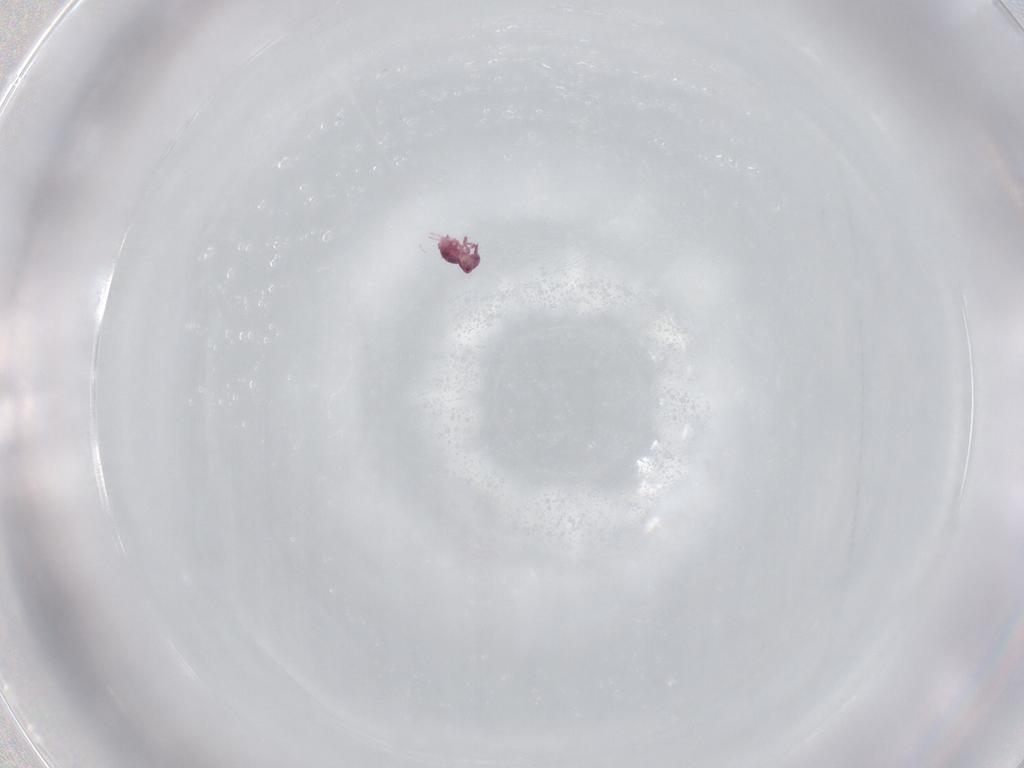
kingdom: Animalia
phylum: Arthropoda
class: Collembola
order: Symphypleona
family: Sminthurididae
